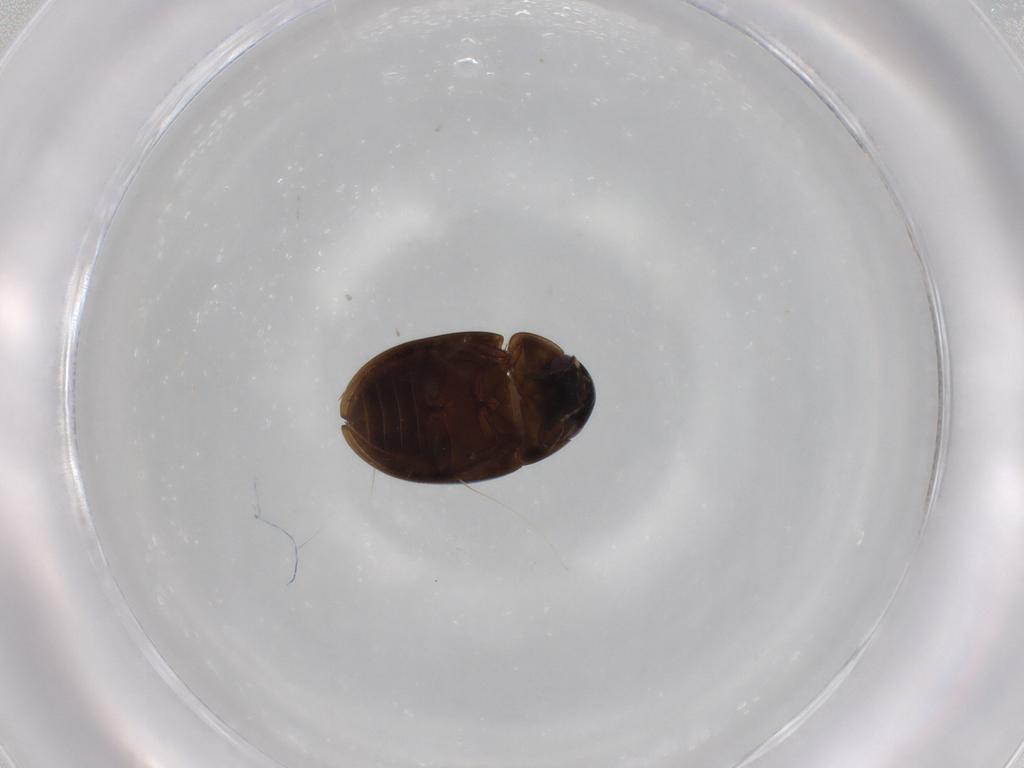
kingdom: Animalia
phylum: Arthropoda
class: Insecta
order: Coleoptera
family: Hydrophilidae
